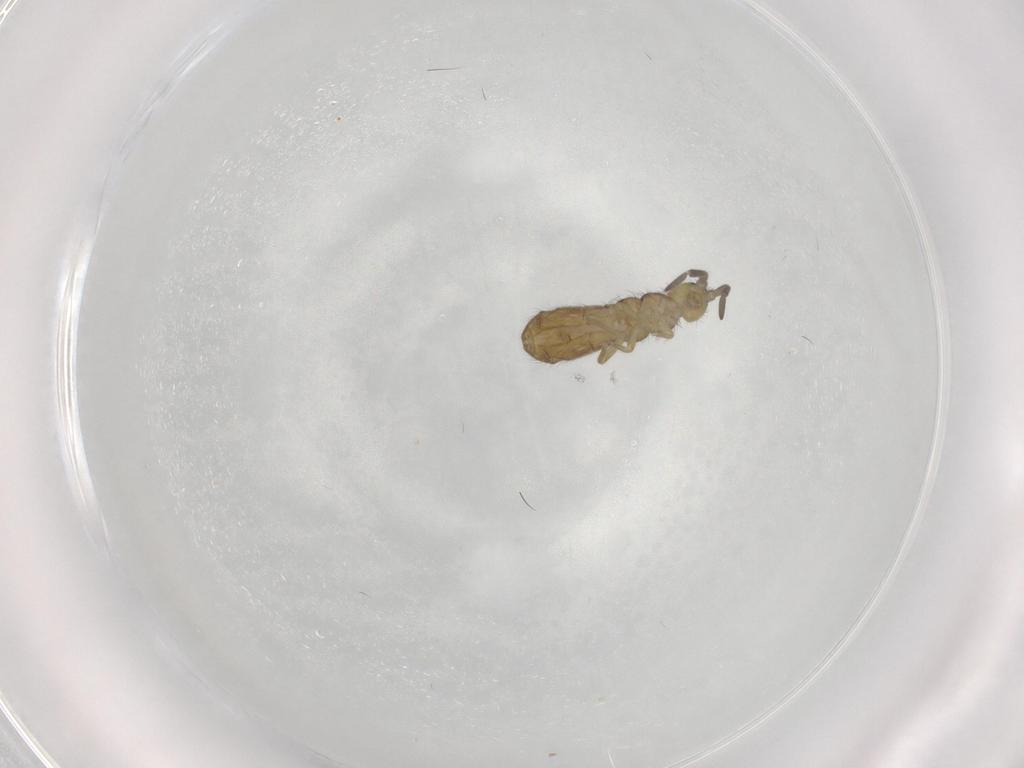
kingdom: Animalia
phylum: Arthropoda
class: Collembola
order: Entomobryomorpha
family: Isotomidae
